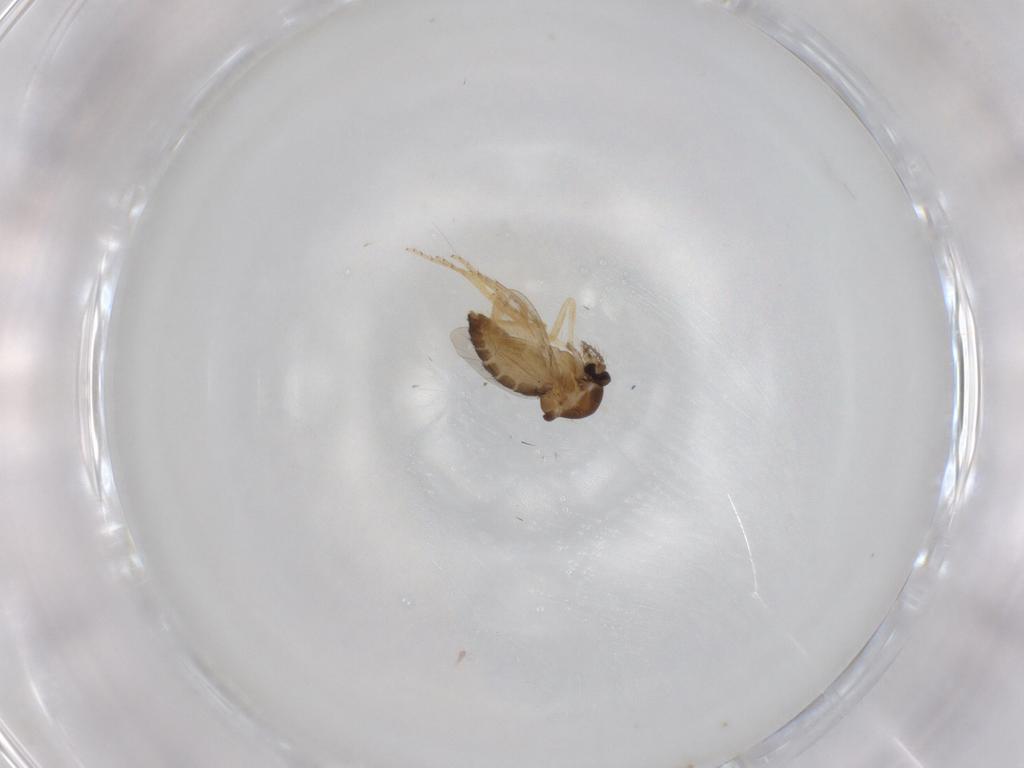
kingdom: Animalia
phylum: Arthropoda
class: Insecta
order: Diptera
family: Ceratopogonidae
